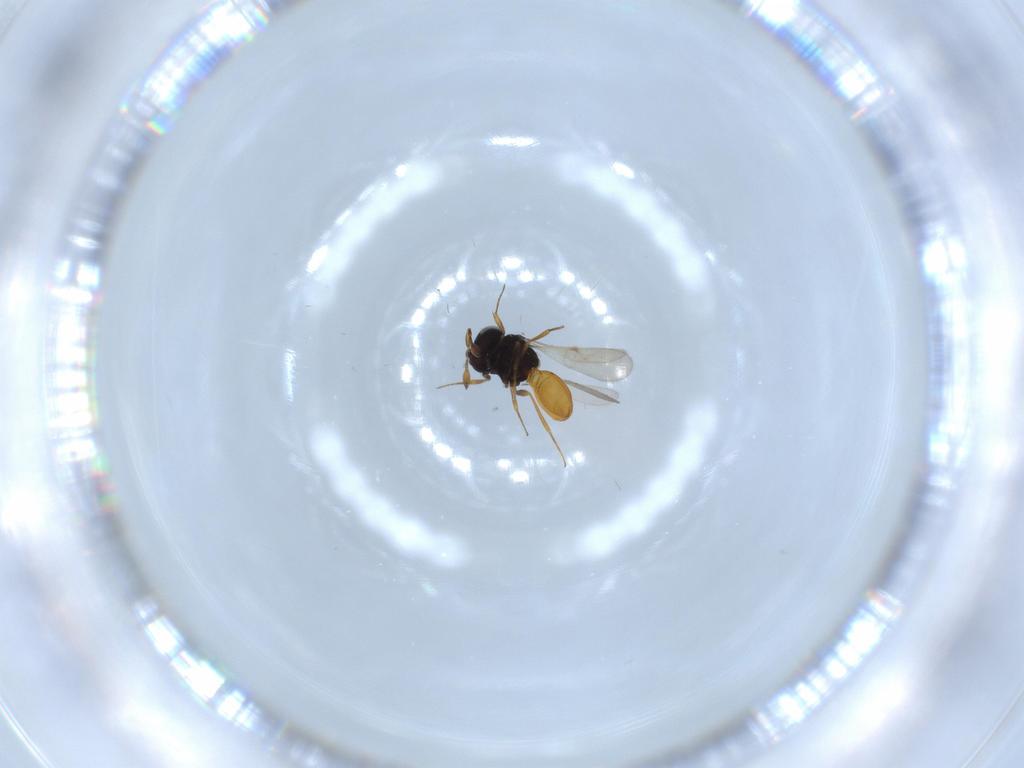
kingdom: Animalia
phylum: Arthropoda
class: Insecta
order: Hymenoptera
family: Scelionidae
